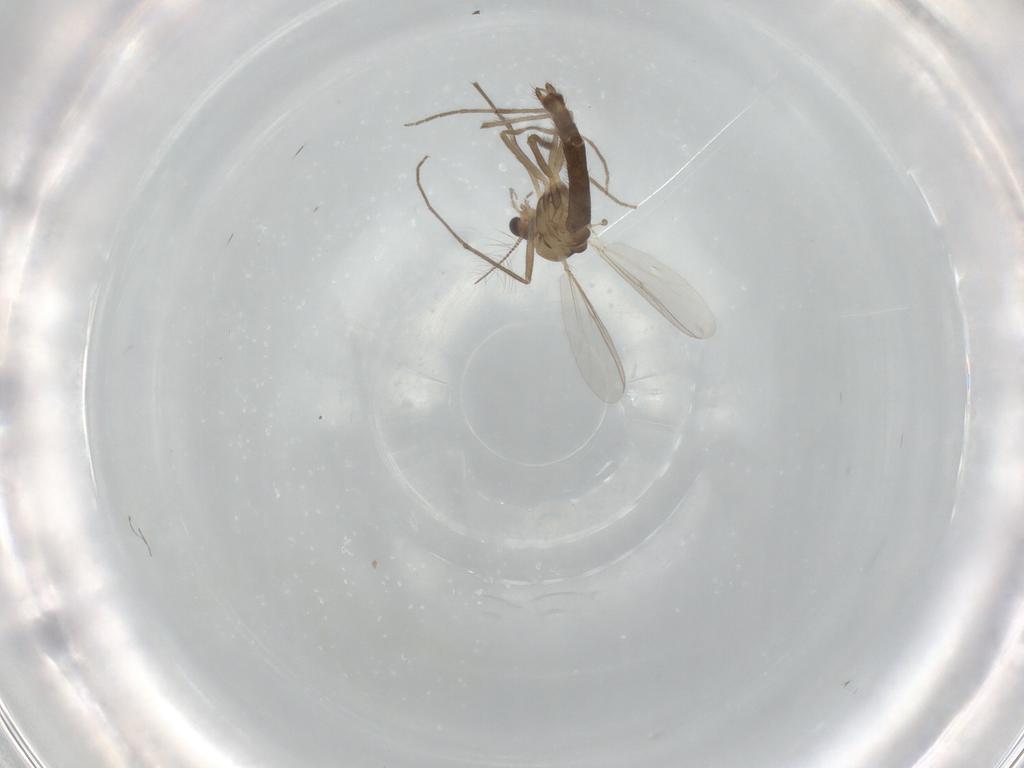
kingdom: Animalia
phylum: Arthropoda
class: Insecta
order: Diptera
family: Chironomidae
